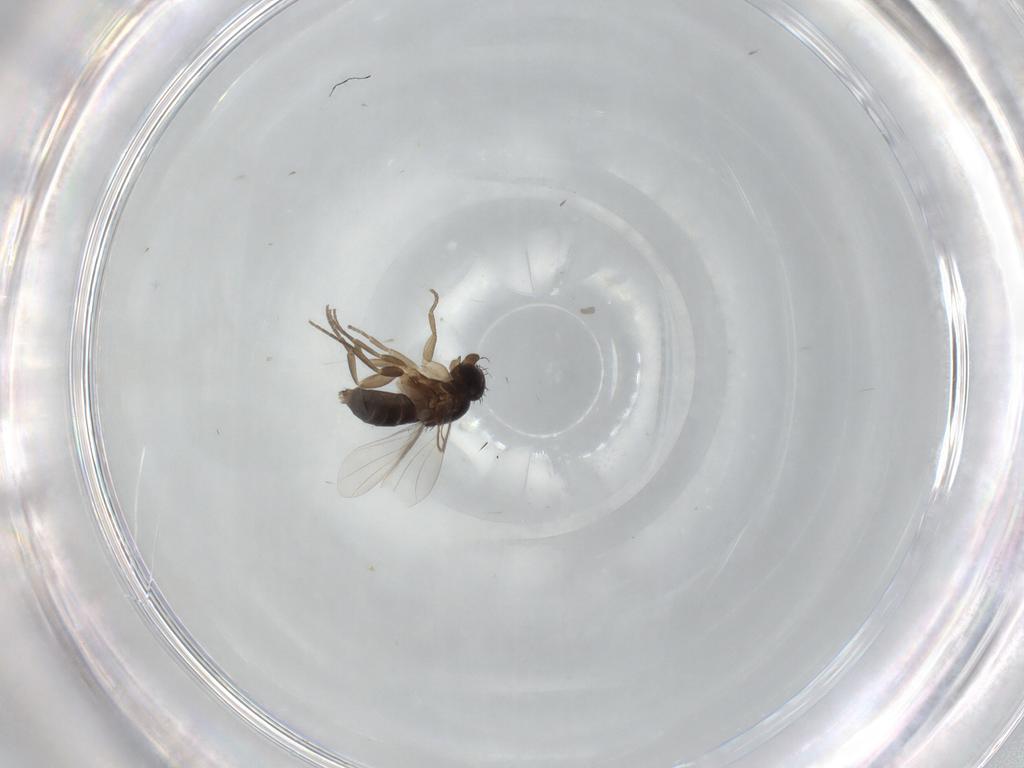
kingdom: Animalia
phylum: Arthropoda
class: Insecta
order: Diptera
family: Phoridae
